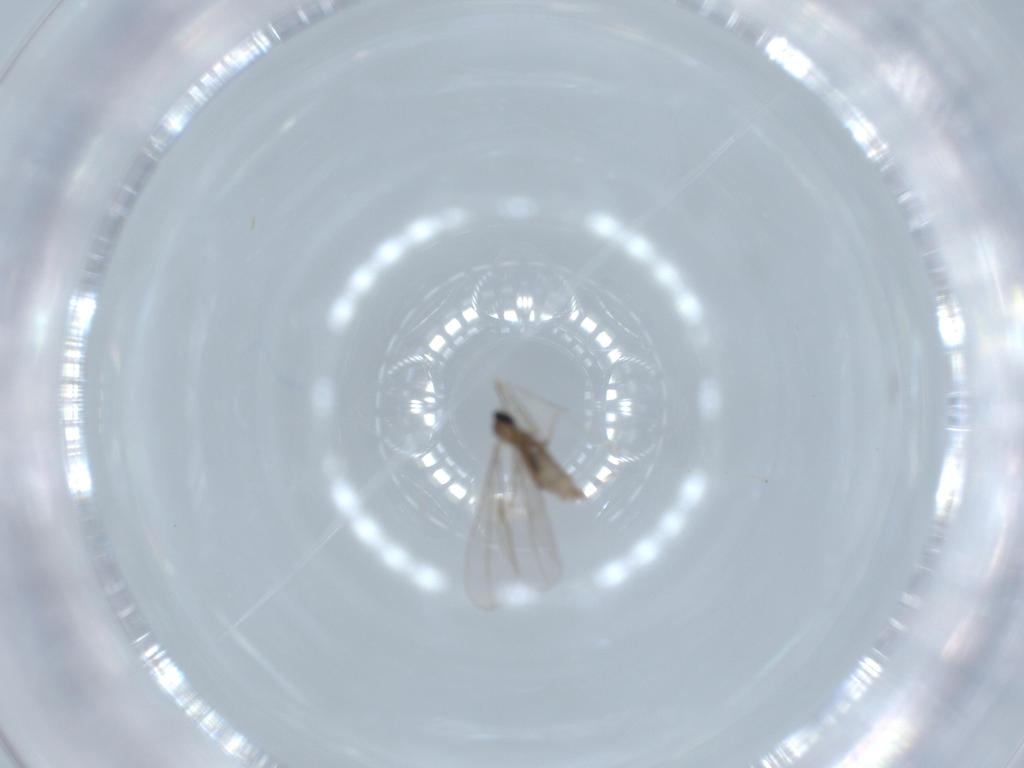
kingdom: Animalia
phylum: Arthropoda
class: Insecta
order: Diptera
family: Cecidomyiidae
